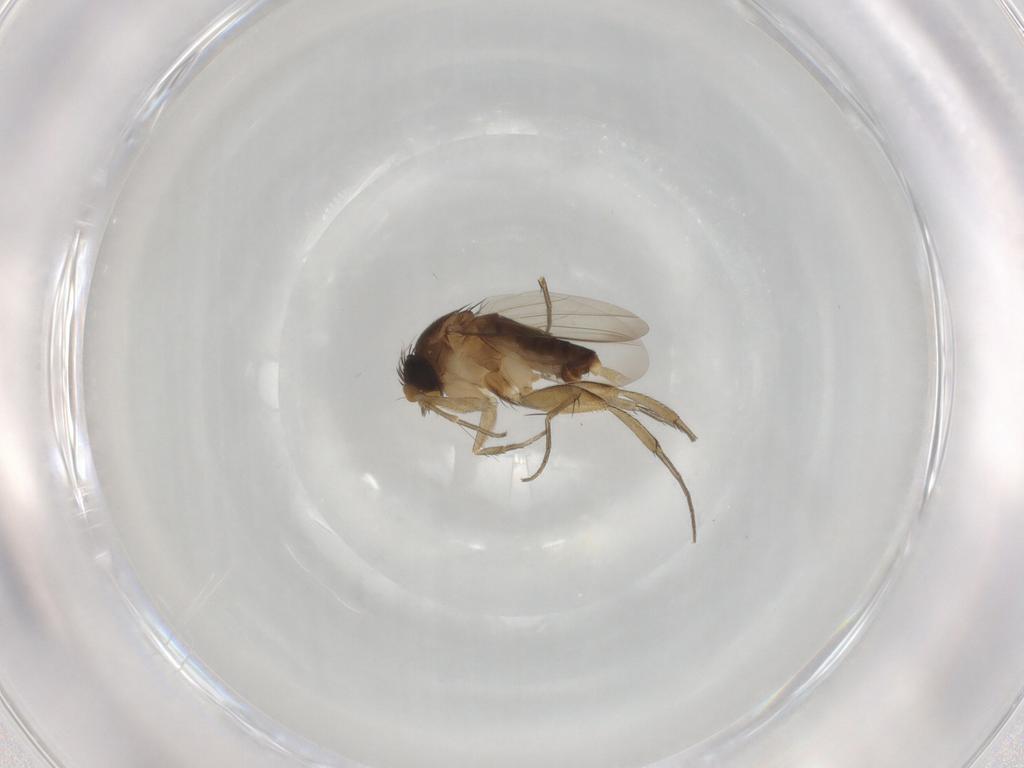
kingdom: Animalia
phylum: Arthropoda
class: Insecta
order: Diptera
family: Phoridae
